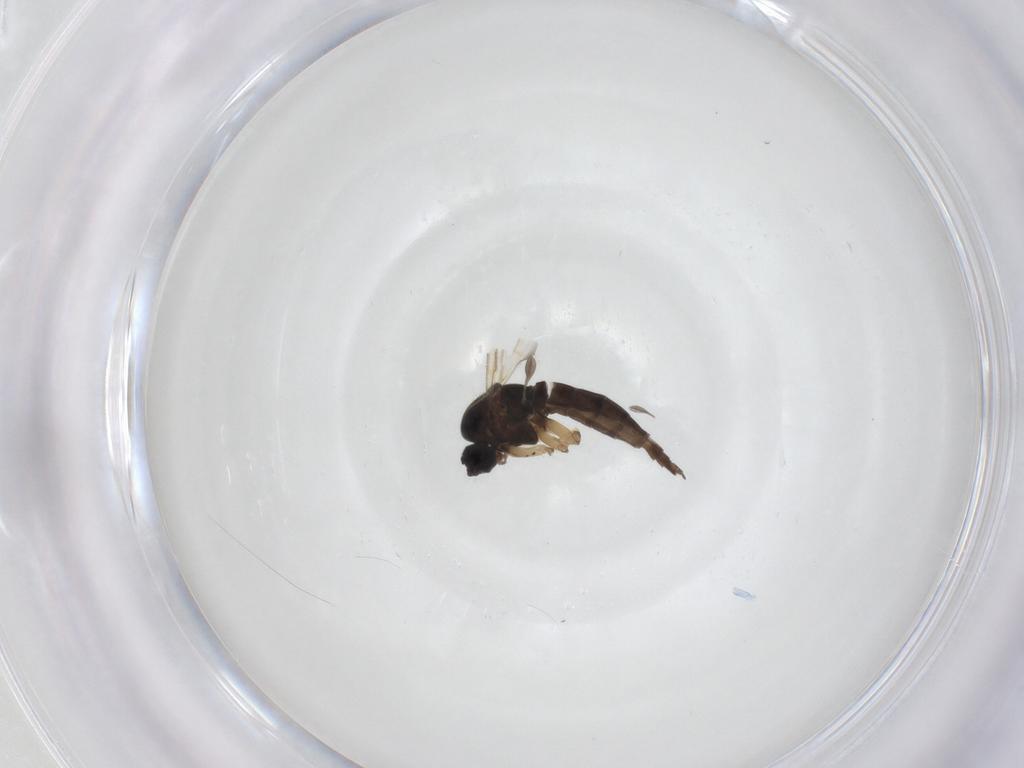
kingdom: Animalia
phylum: Arthropoda
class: Insecta
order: Diptera
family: Sciaridae
